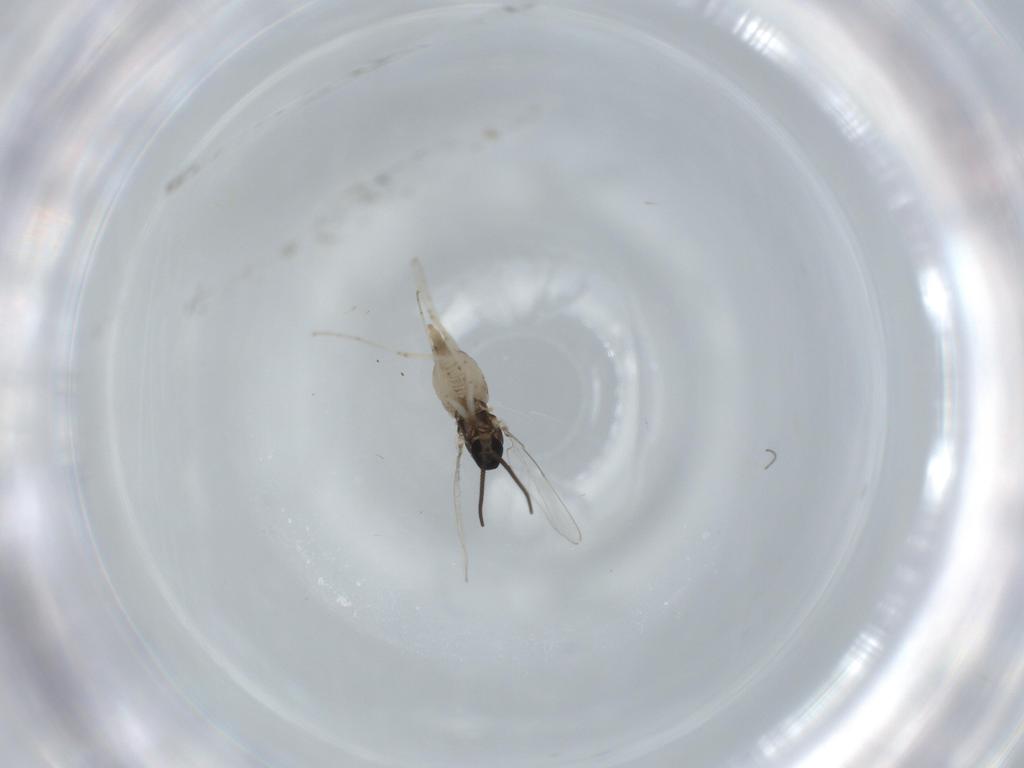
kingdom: Animalia
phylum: Arthropoda
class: Insecta
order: Diptera
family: Cecidomyiidae
